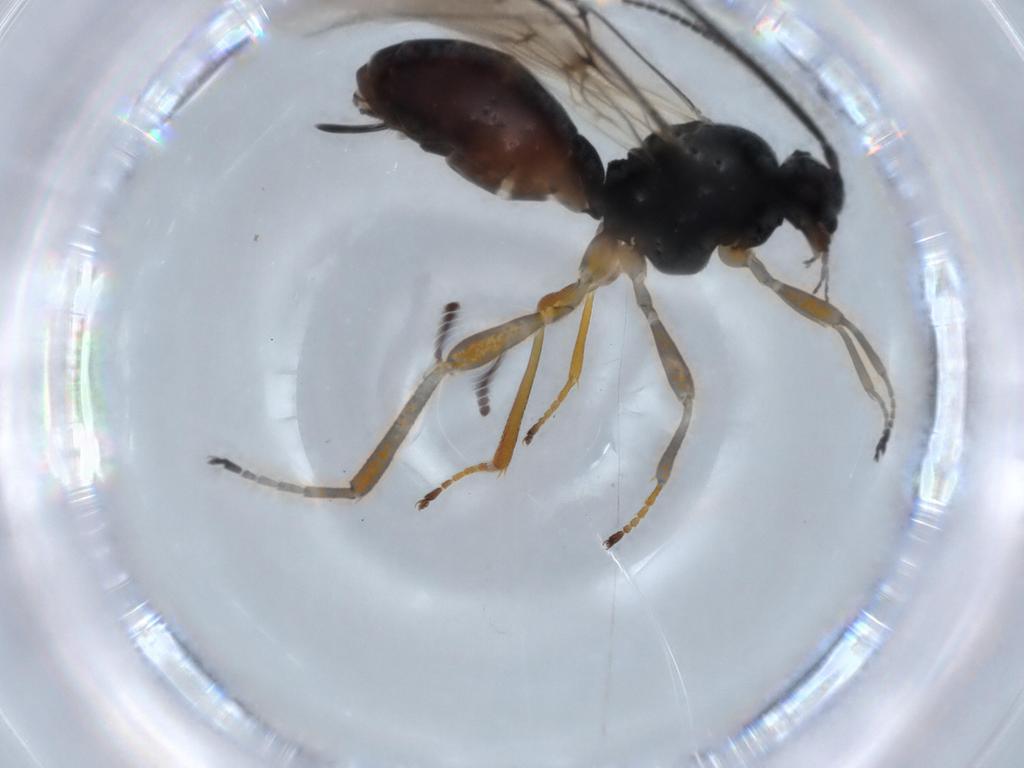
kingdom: Animalia
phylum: Arthropoda
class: Insecta
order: Hymenoptera
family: Braconidae
